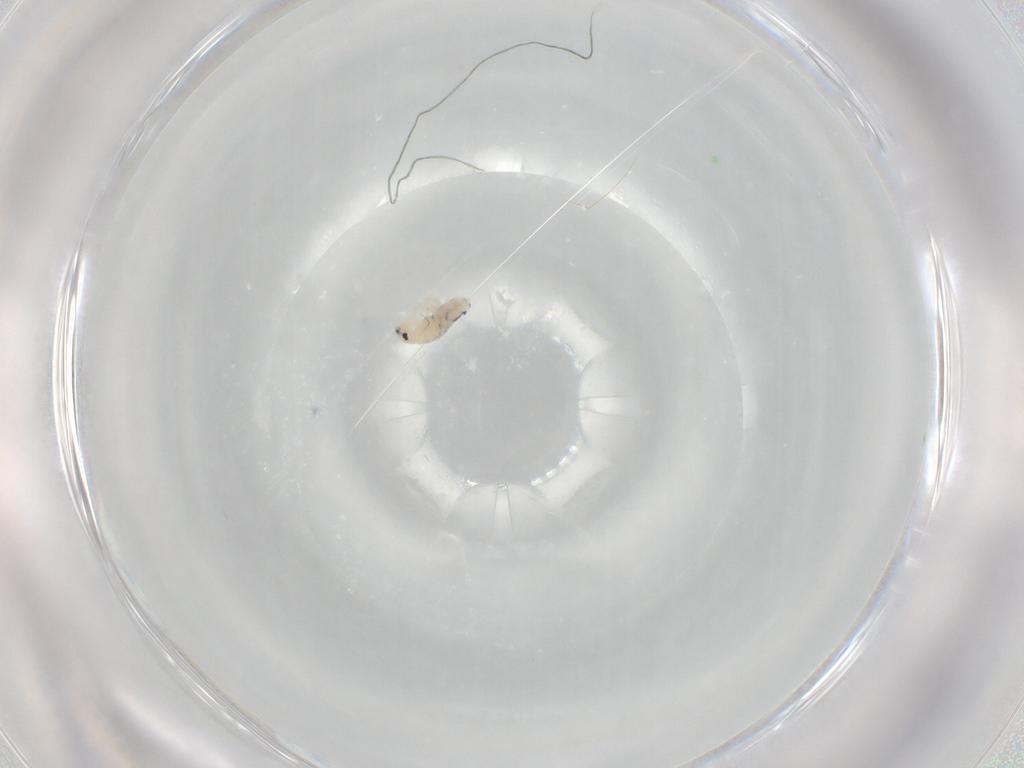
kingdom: Animalia
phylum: Arthropoda
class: Collembola
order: Entomobryomorpha
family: Entomobryidae
